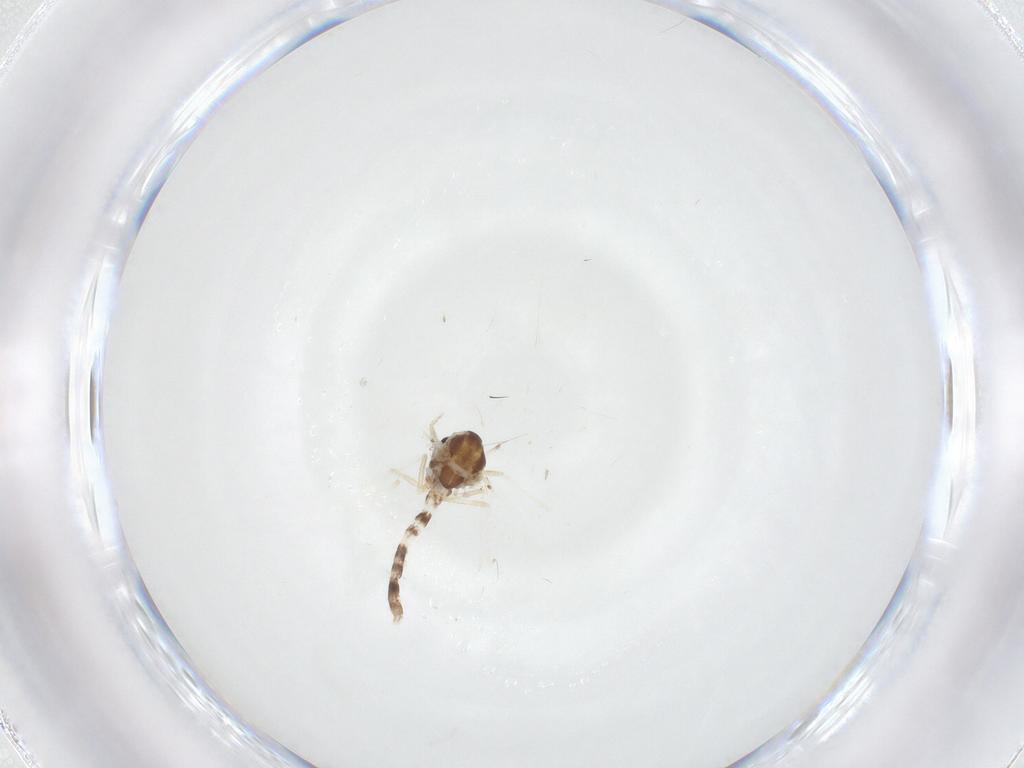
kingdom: Animalia
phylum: Arthropoda
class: Insecta
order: Diptera
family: Chironomidae
